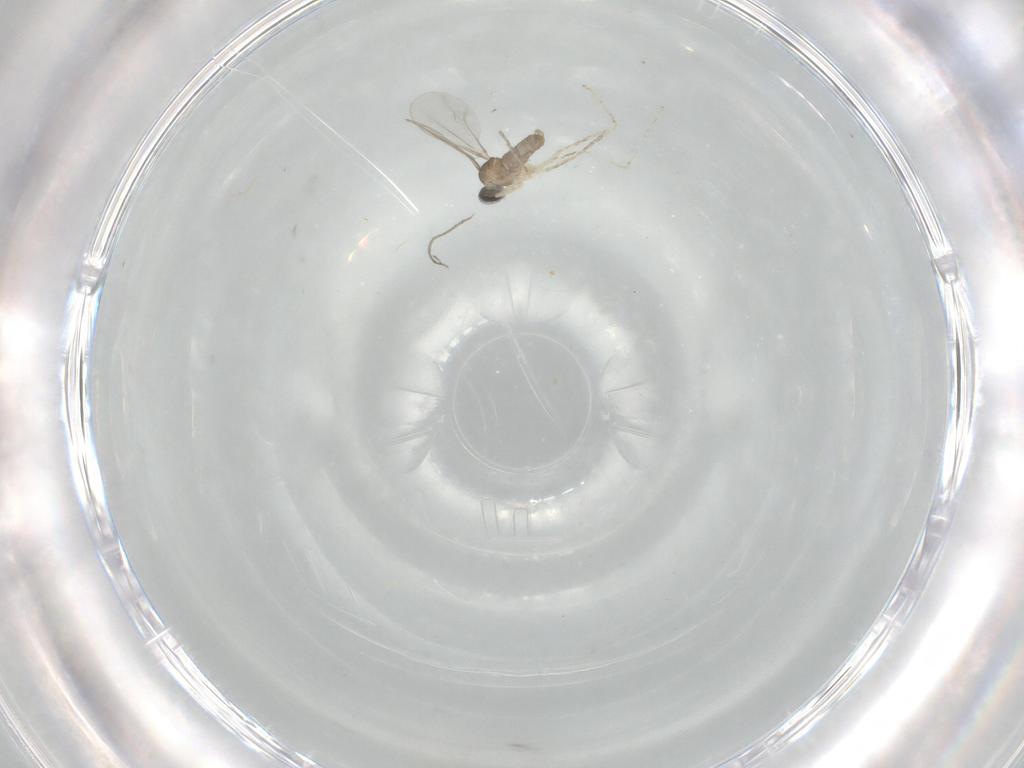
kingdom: Animalia
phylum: Arthropoda
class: Insecta
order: Diptera
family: Cecidomyiidae
